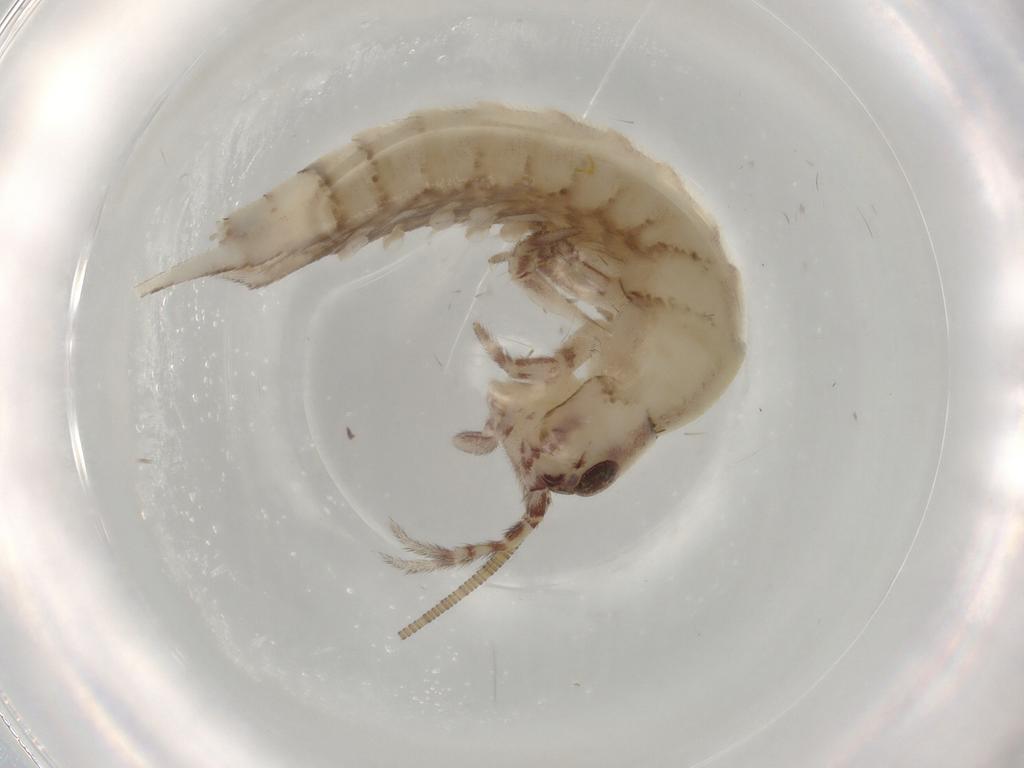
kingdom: Animalia
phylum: Arthropoda
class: Insecta
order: Archaeognatha
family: Machilidae
